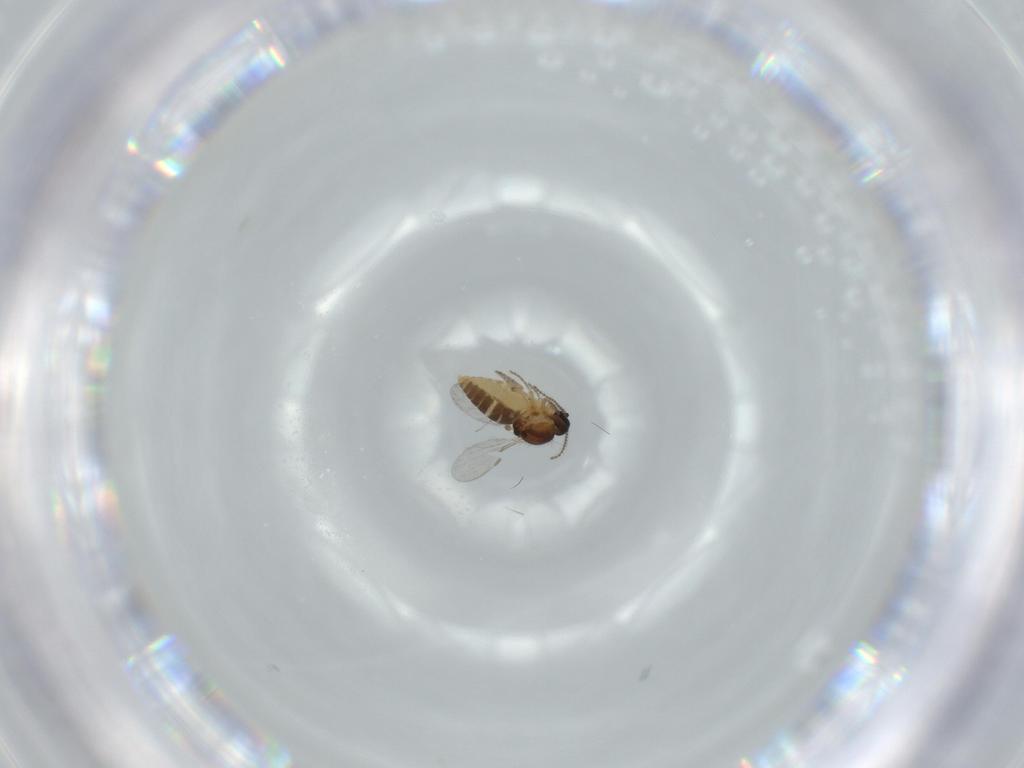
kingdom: Animalia
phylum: Arthropoda
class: Insecta
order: Diptera
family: Ceratopogonidae
